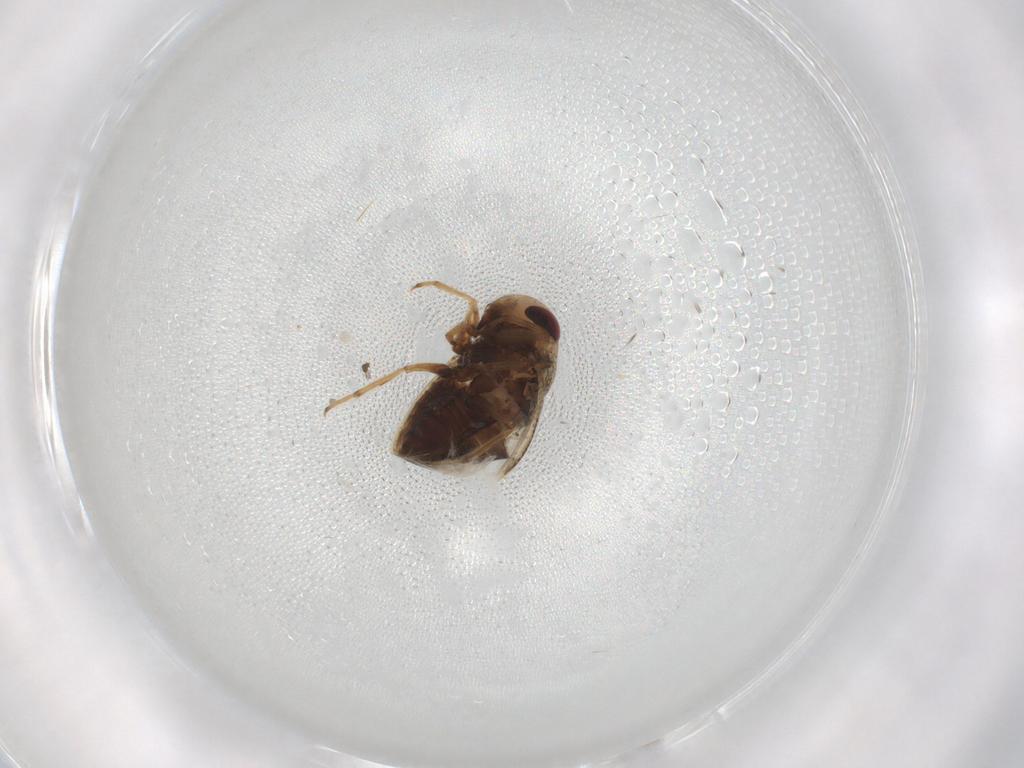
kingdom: Animalia
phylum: Arthropoda
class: Insecta
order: Hemiptera
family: Pleidae
